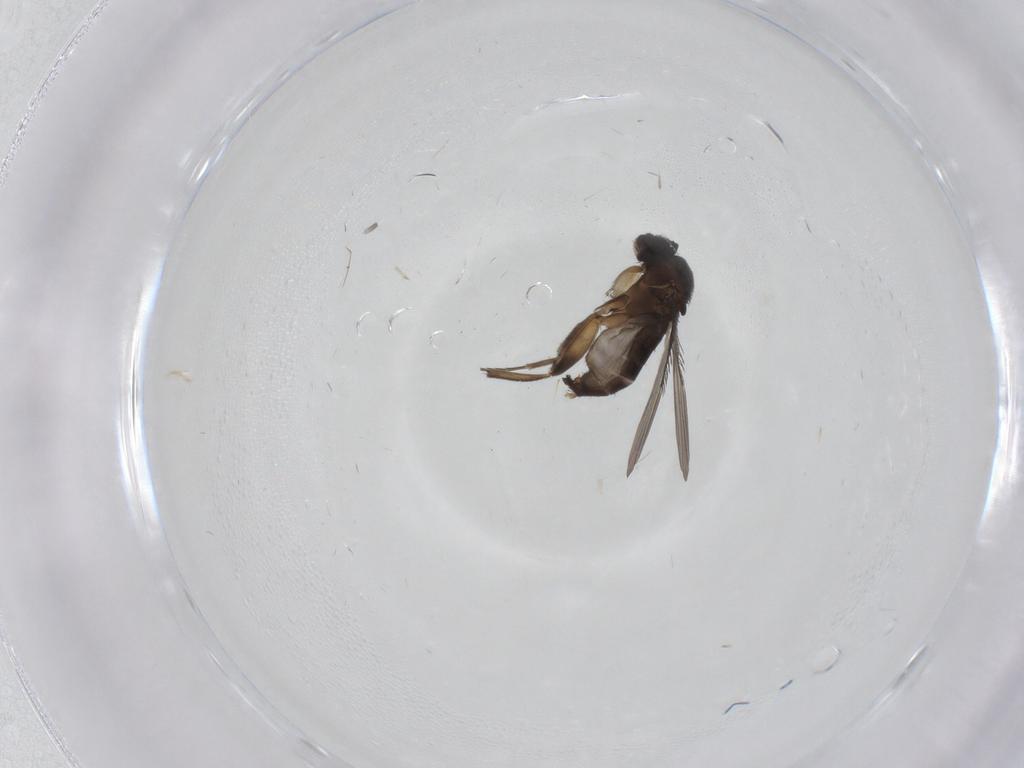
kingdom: Animalia
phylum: Arthropoda
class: Insecta
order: Diptera
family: Phoridae
